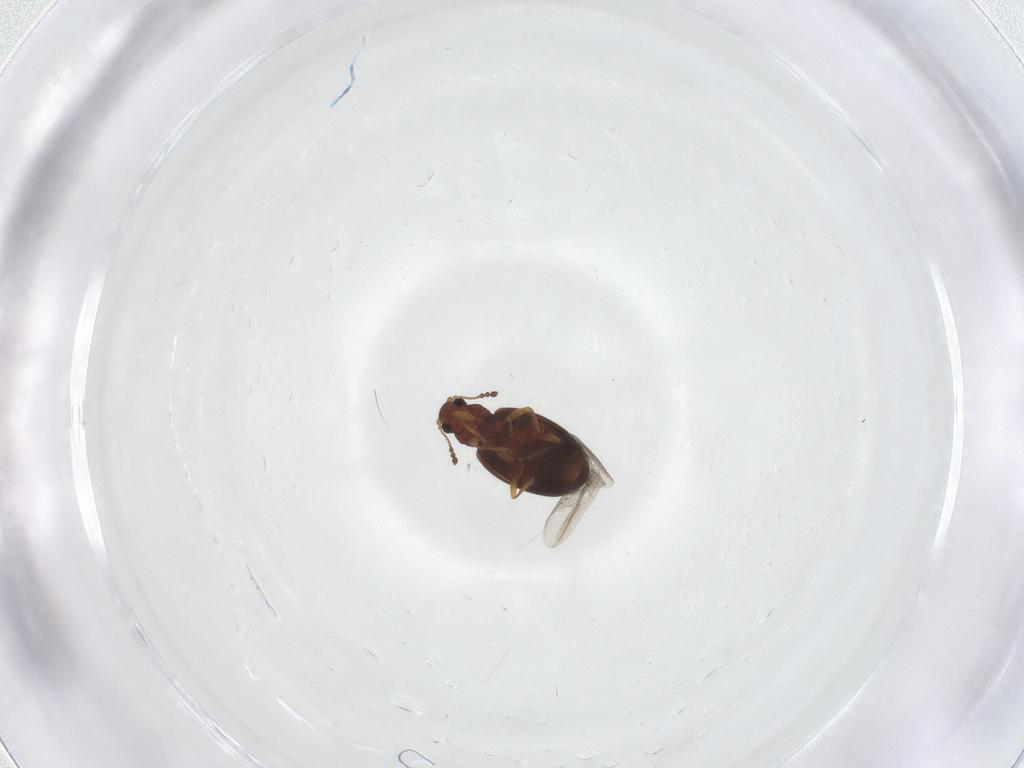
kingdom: Animalia
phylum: Arthropoda
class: Insecta
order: Coleoptera
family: Latridiidae
